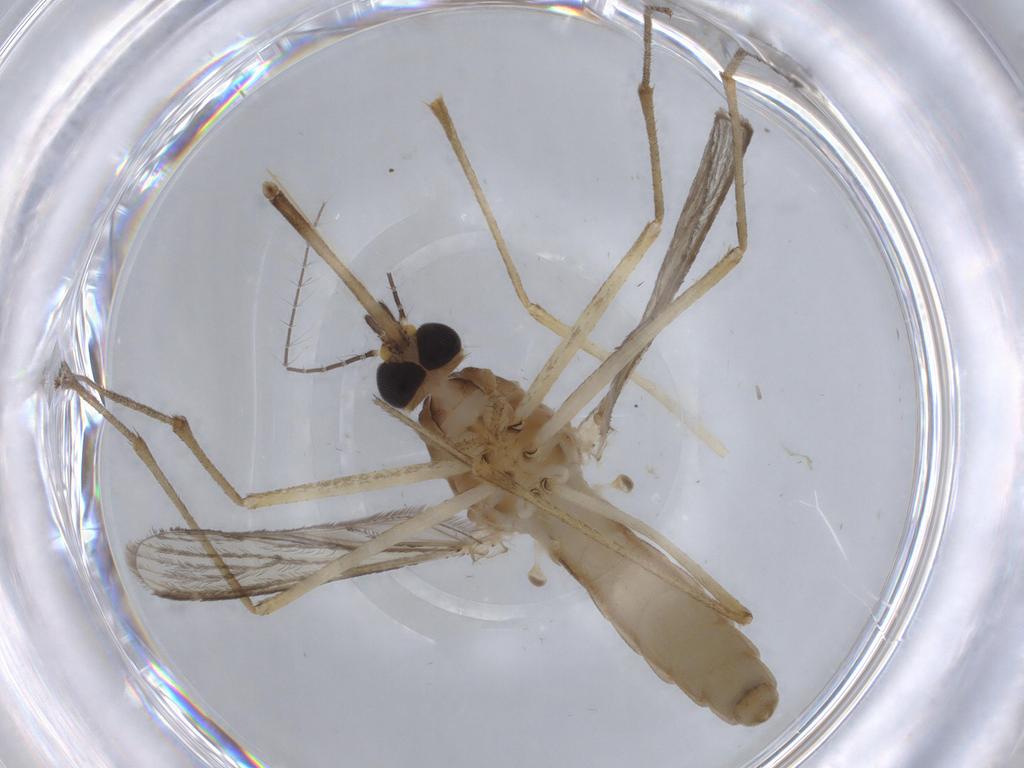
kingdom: Animalia
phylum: Arthropoda
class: Insecta
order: Diptera
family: Culicidae
